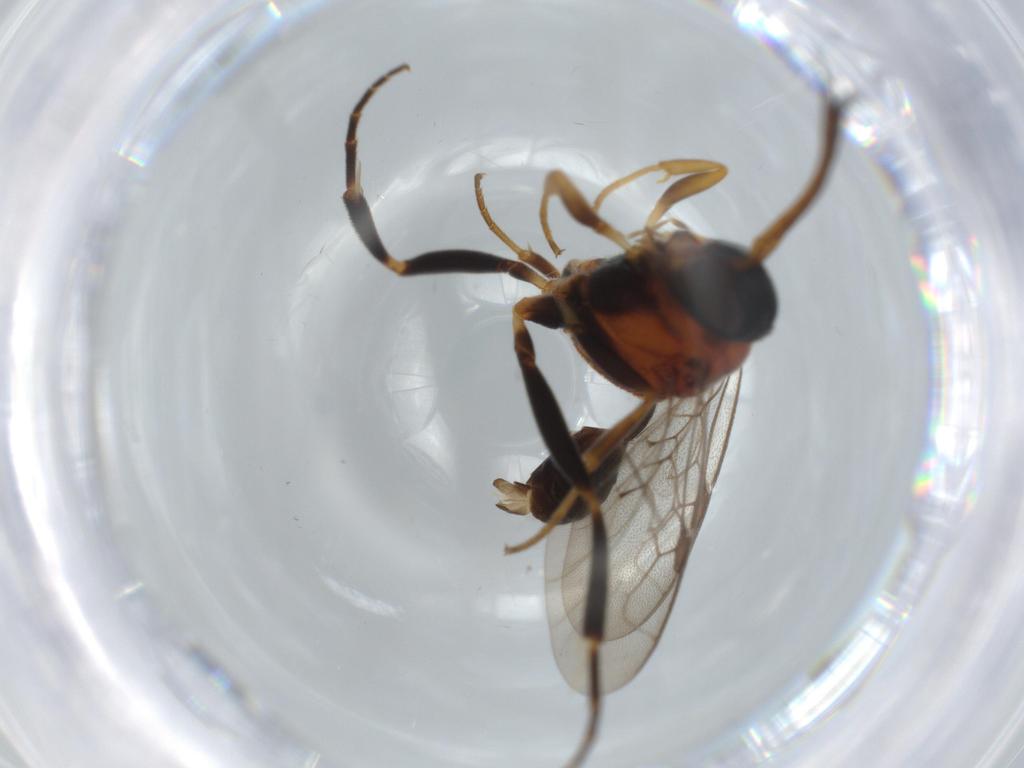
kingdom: Animalia
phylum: Arthropoda
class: Insecta
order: Hymenoptera
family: Evaniidae
